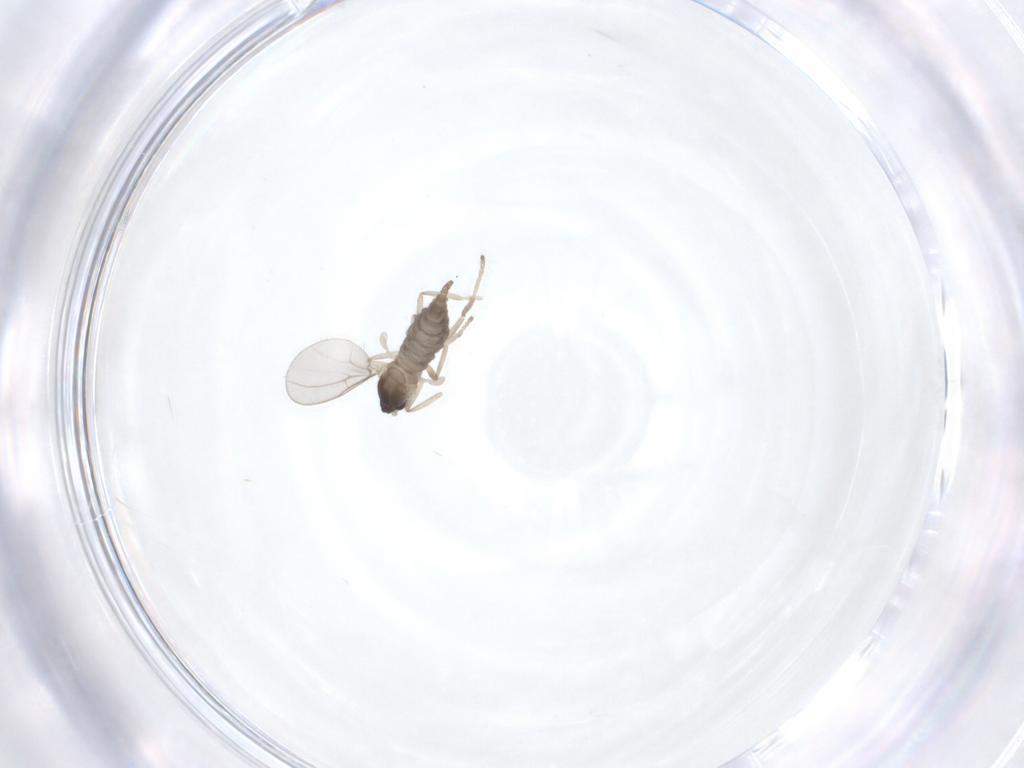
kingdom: Animalia
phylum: Arthropoda
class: Insecta
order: Diptera
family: Cecidomyiidae
